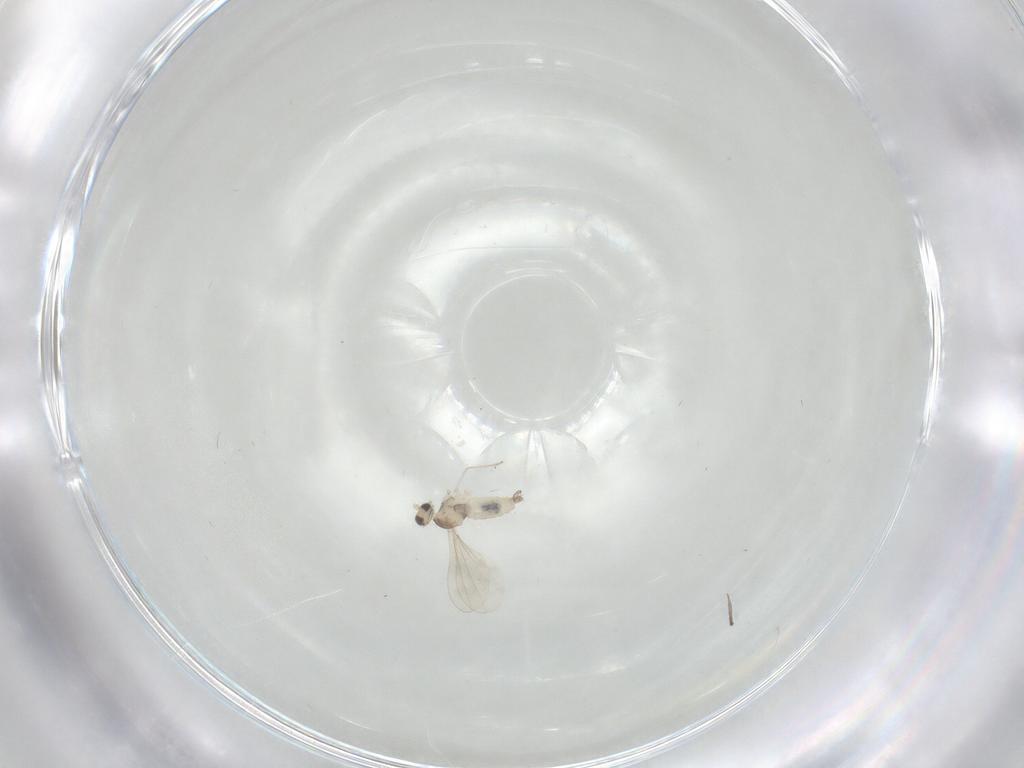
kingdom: Animalia
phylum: Arthropoda
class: Insecta
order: Diptera
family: Cecidomyiidae
